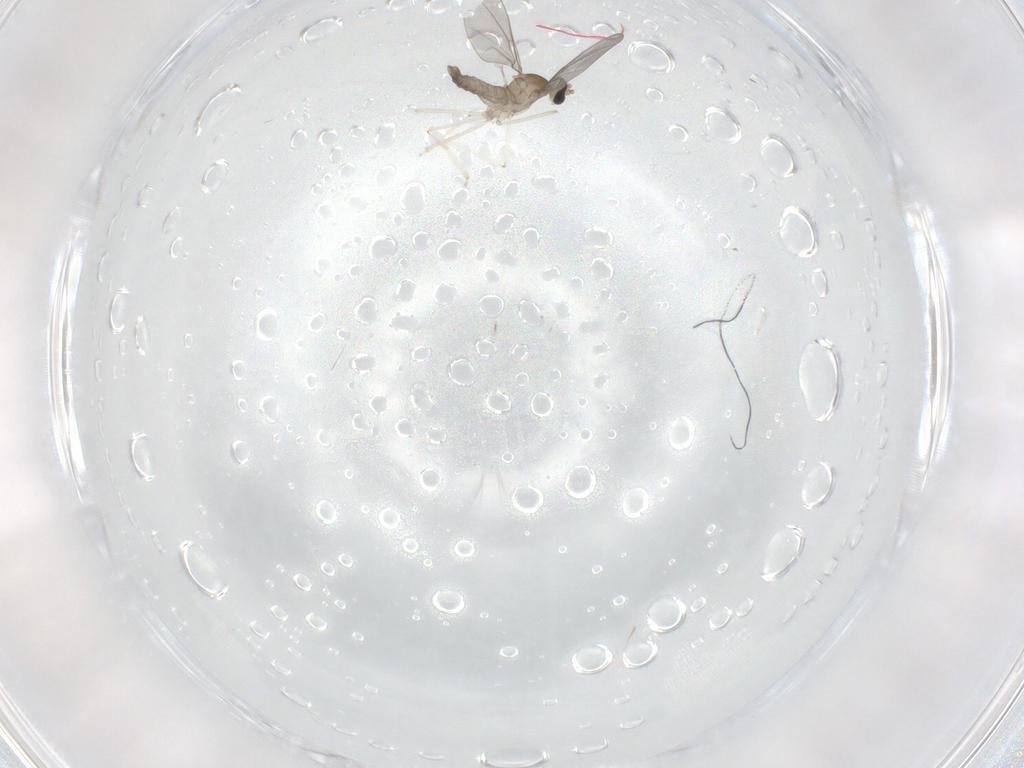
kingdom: Animalia
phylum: Arthropoda
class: Insecta
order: Diptera
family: Cecidomyiidae
